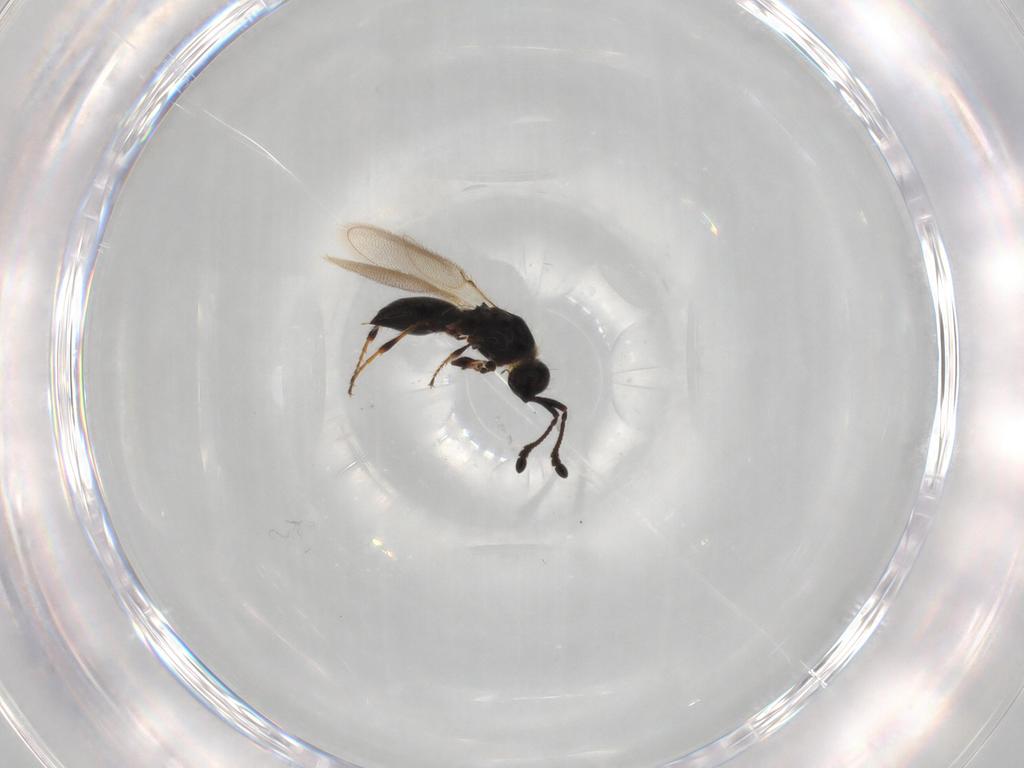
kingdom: Animalia
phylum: Arthropoda
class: Insecta
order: Hymenoptera
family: Diapriidae
